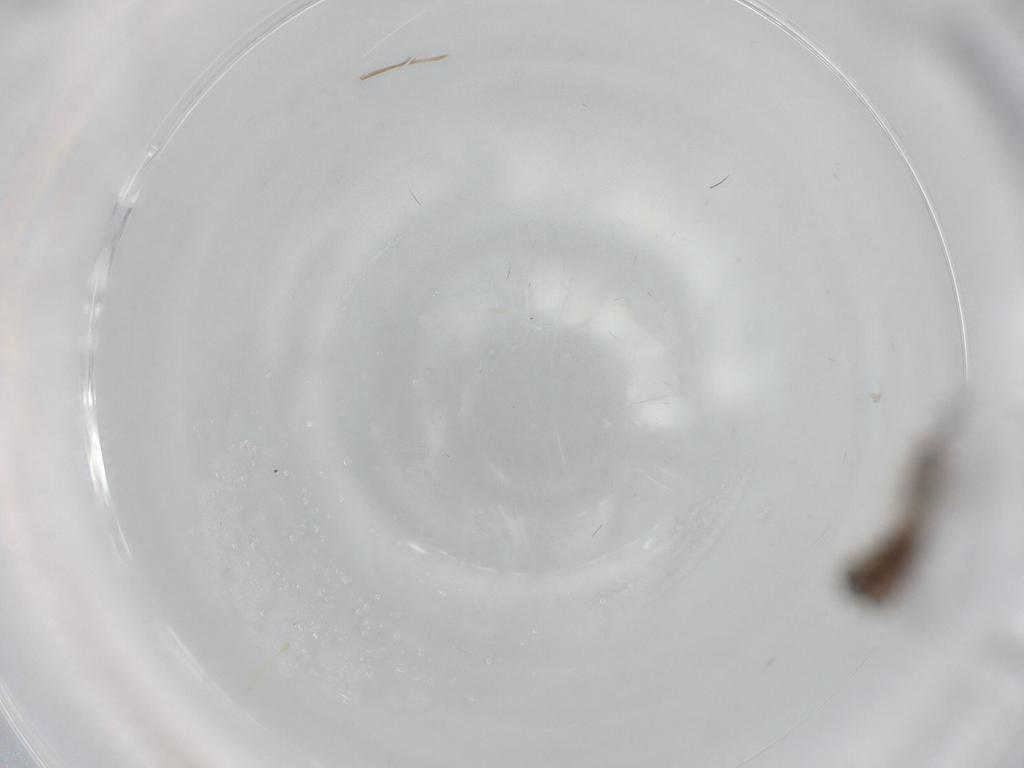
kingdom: Animalia
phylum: Arthropoda
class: Insecta
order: Diptera
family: Chironomidae
